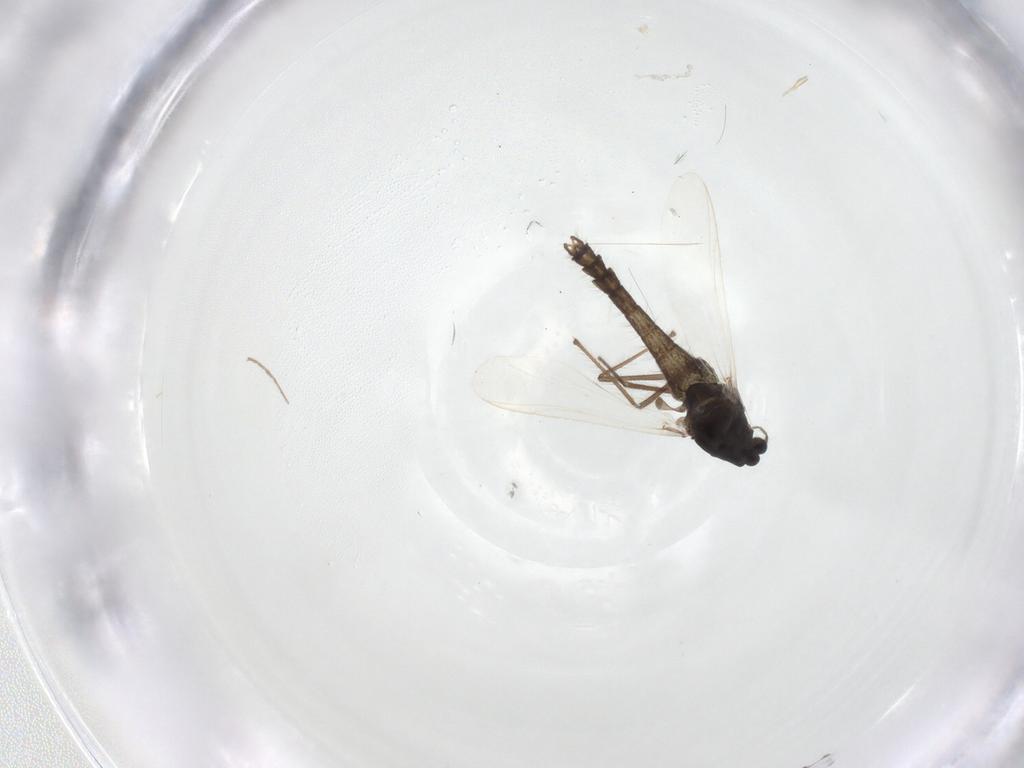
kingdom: Animalia
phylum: Arthropoda
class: Insecta
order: Diptera
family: Chironomidae
